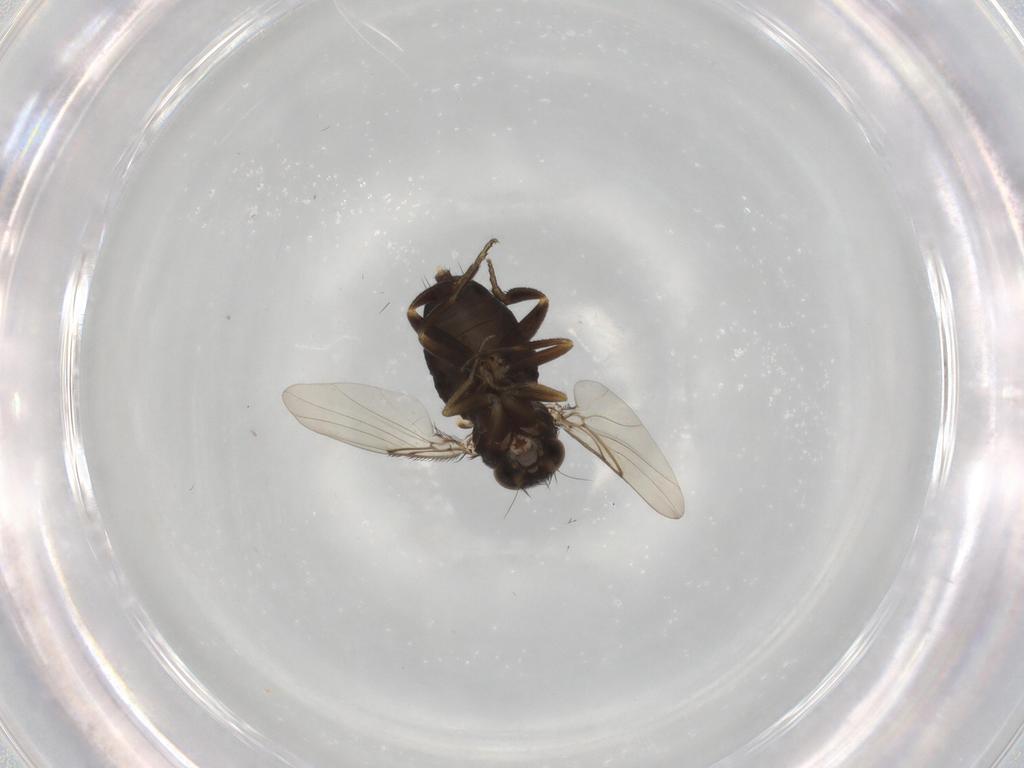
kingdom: Animalia
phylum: Arthropoda
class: Insecta
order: Diptera
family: Phoridae
